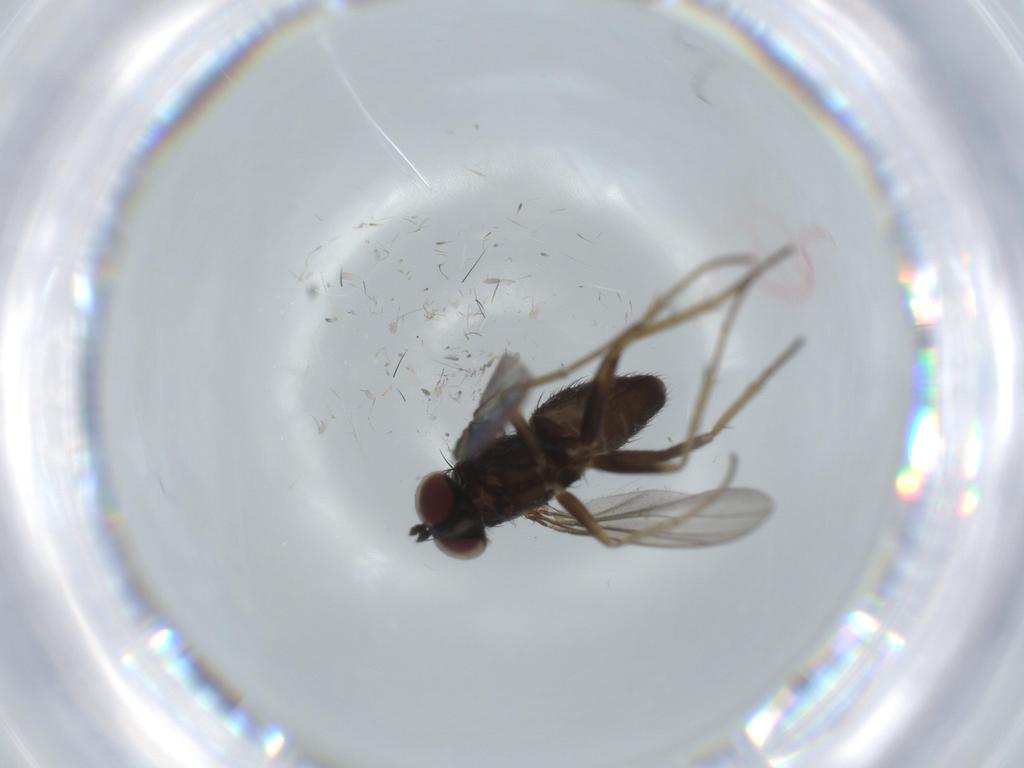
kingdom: Animalia
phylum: Arthropoda
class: Insecta
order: Diptera
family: Dolichopodidae
